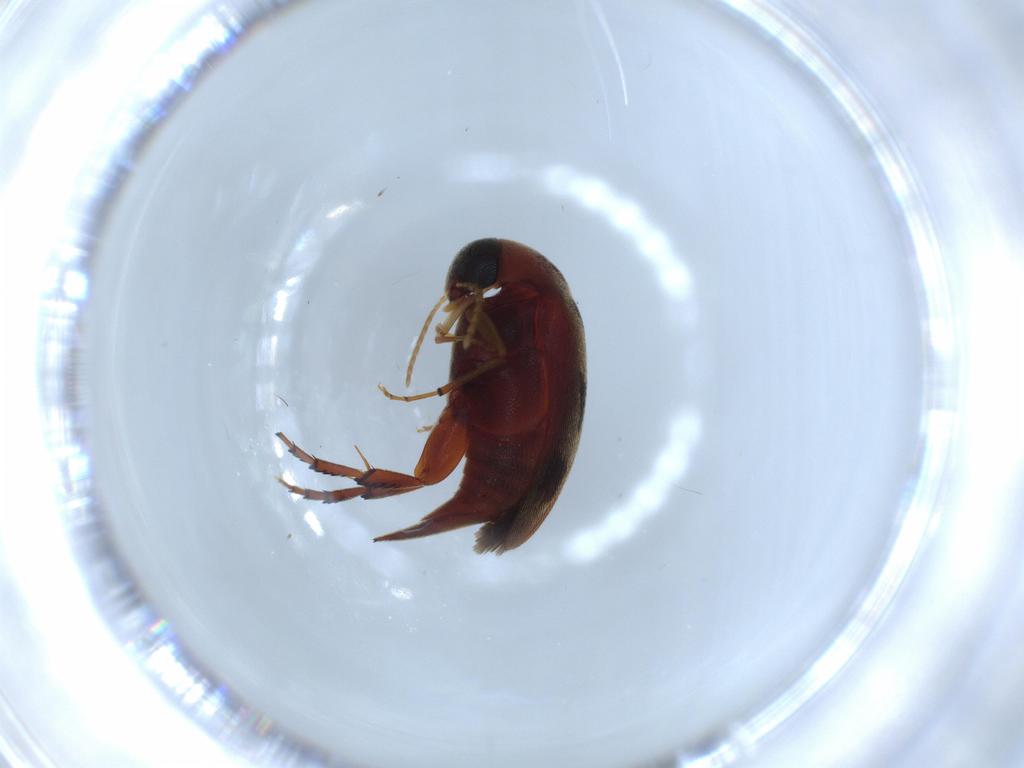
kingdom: Animalia
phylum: Arthropoda
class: Insecta
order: Coleoptera
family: Mordellidae
